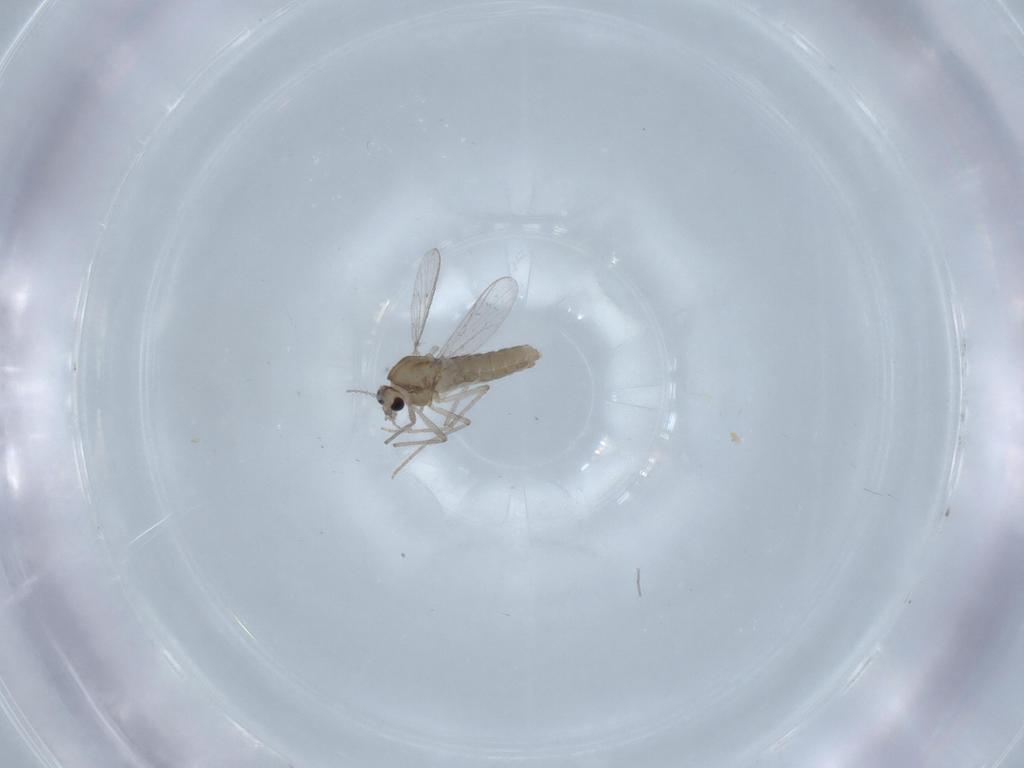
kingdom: Animalia
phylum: Arthropoda
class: Insecta
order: Diptera
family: Chironomidae
